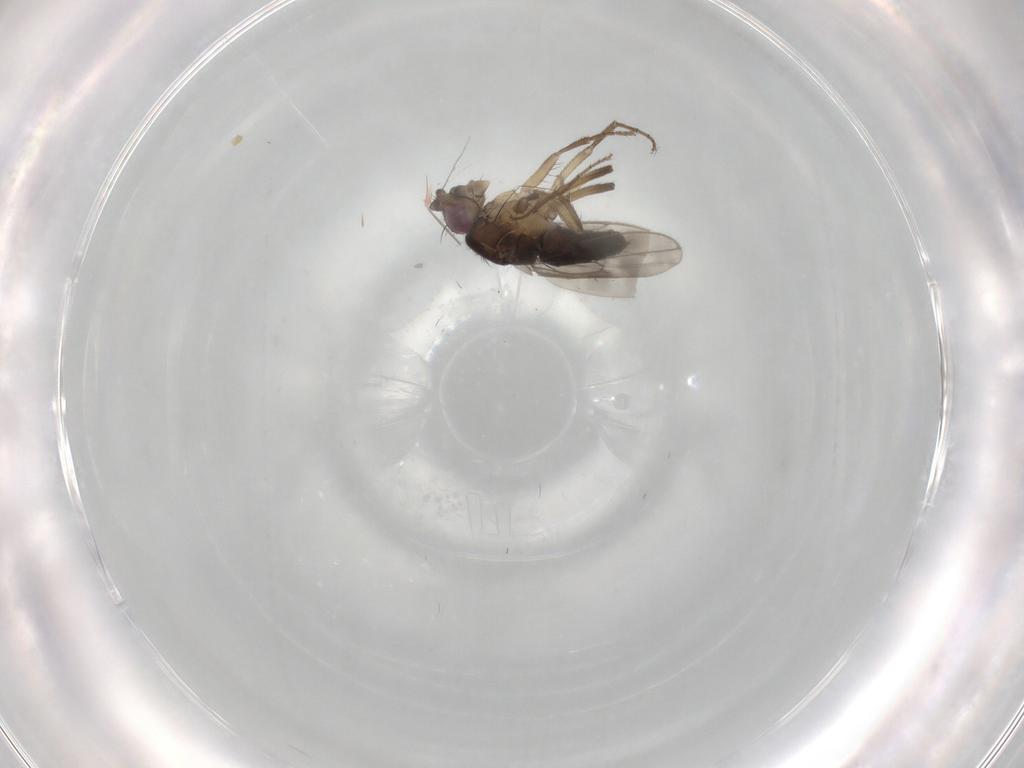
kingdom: Animalia
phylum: Arthropoda
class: Insecta
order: Diptera
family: Sphaeroceridae
